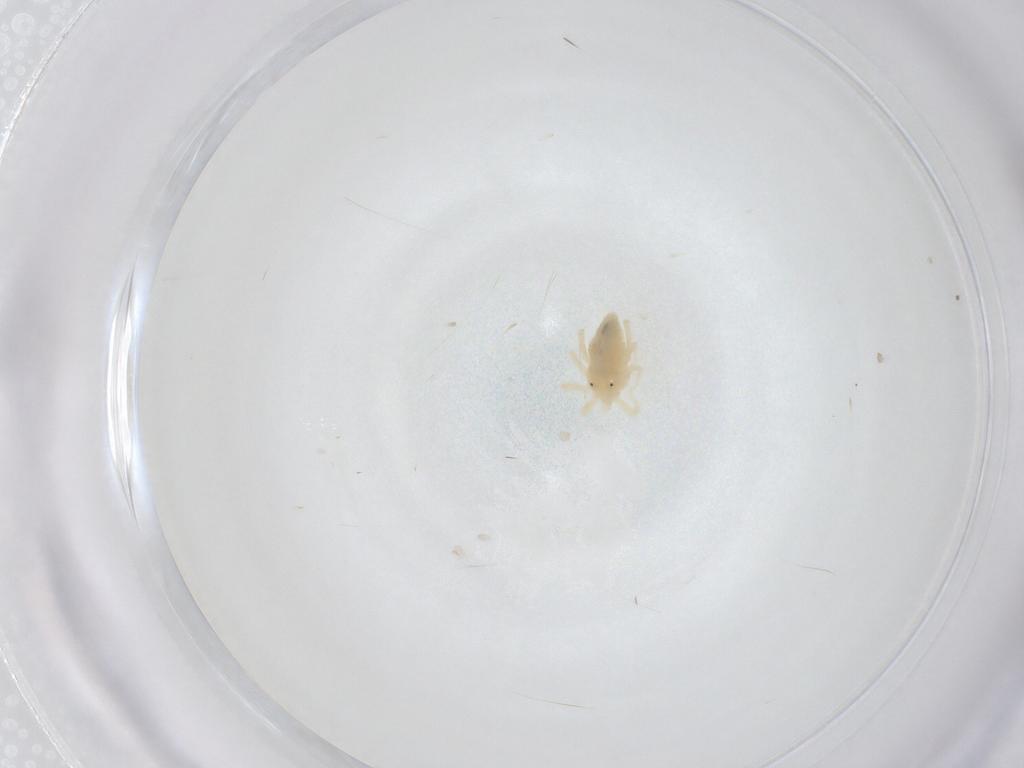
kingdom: Animalia
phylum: Arthropoda
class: Arachnida
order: Trombidiformes
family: Anystidae
